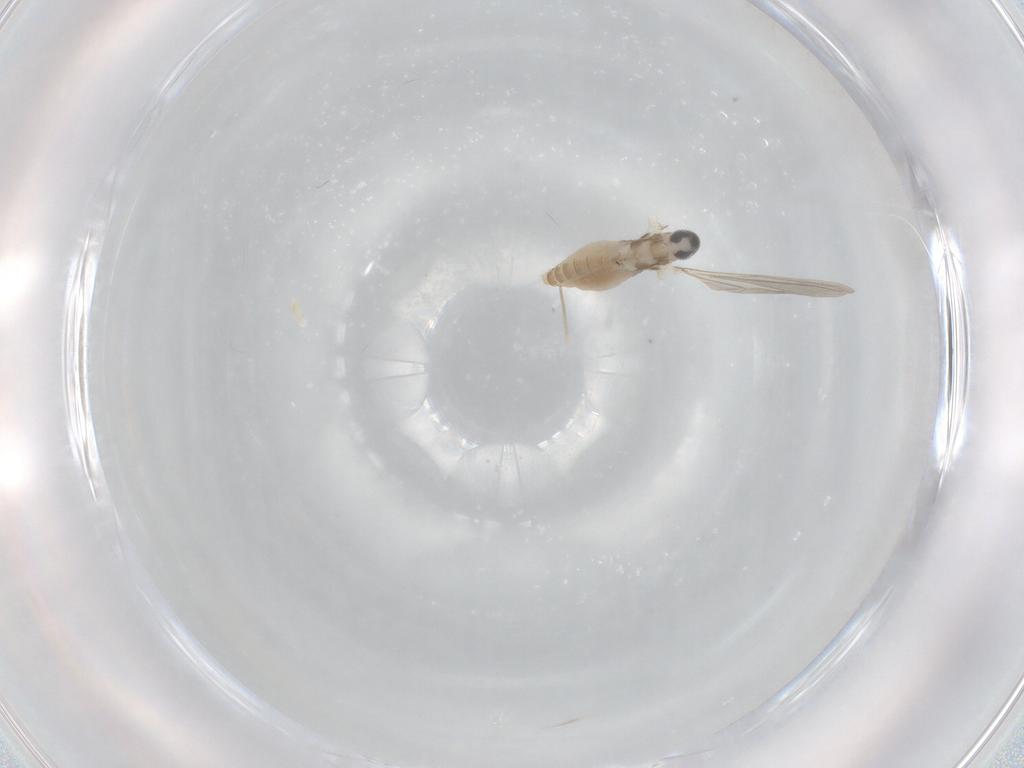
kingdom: Animalia
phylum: Arthropoda
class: Insecta
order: Diptera
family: Cecidomyiidae
